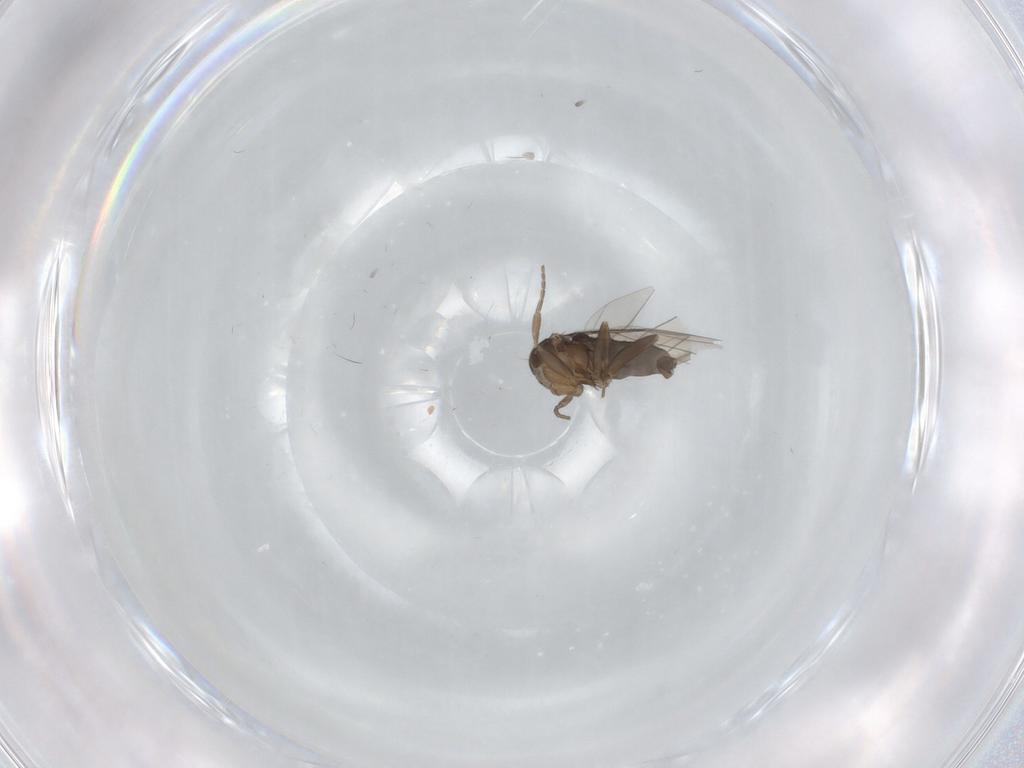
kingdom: Animalia
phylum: Arthropoda
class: Insecta
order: Diptera
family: Phoridae
